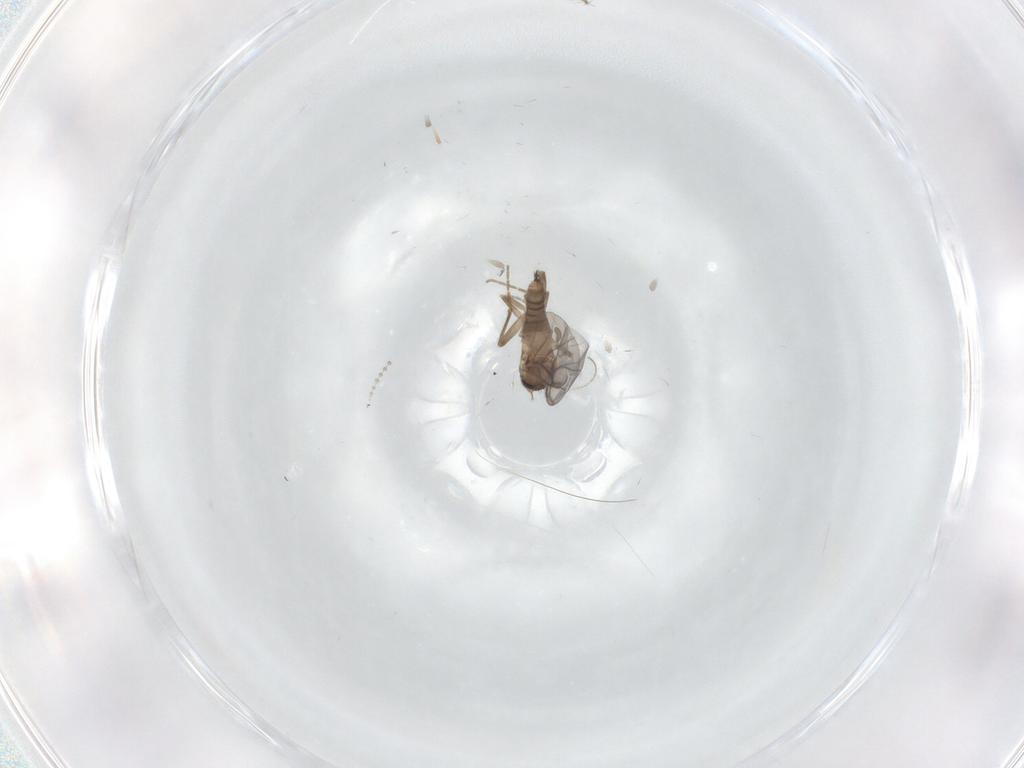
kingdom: Animalia
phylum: Arthropoda
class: Insecta
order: Diptera
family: Psychodidae
